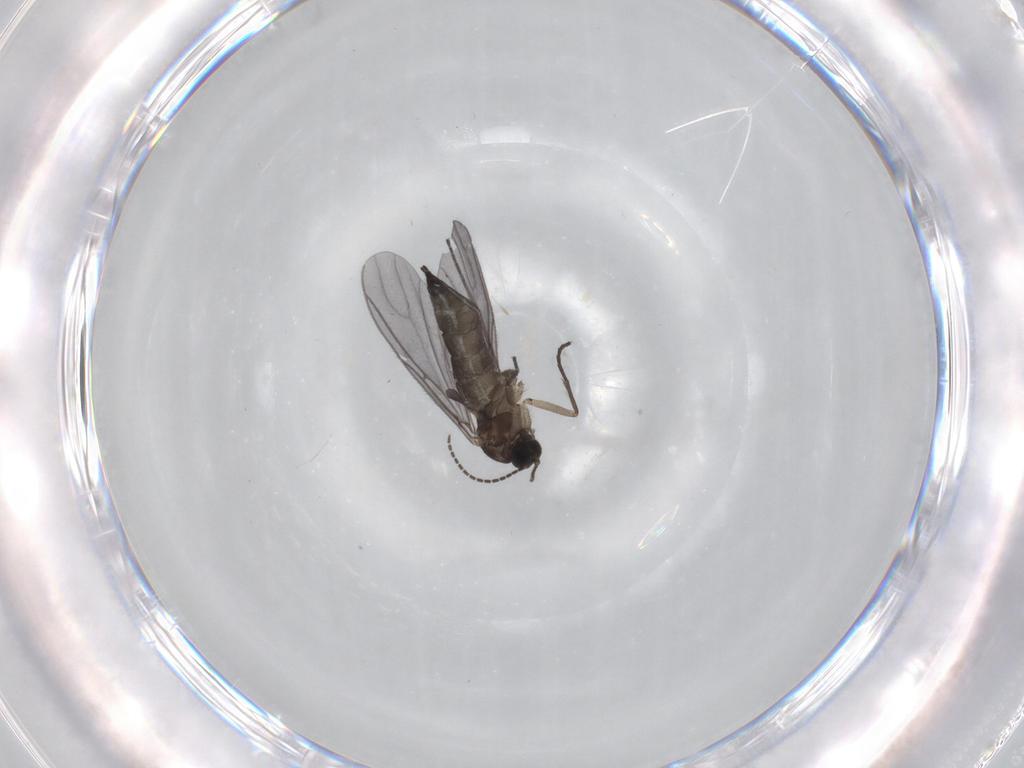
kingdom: Animalia
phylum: Arthropoda
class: Insecta
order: Diptera
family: Sciaridae
